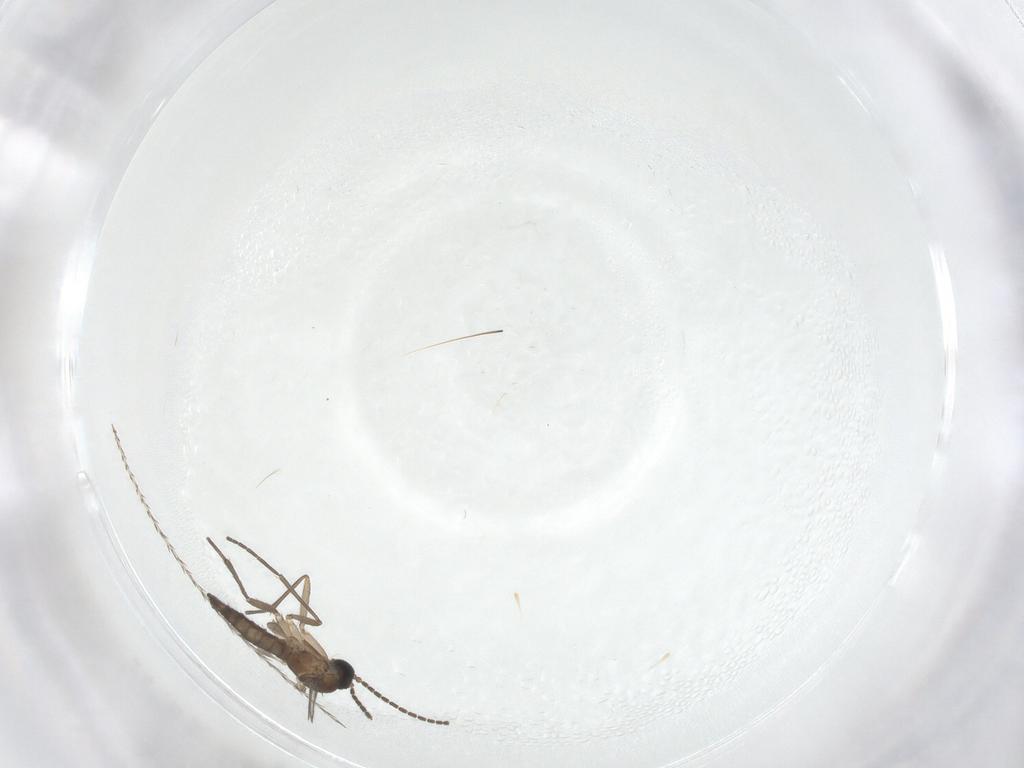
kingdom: Animalia
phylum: Arthropoda
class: Insecta
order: Diptera
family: Sciaridae
